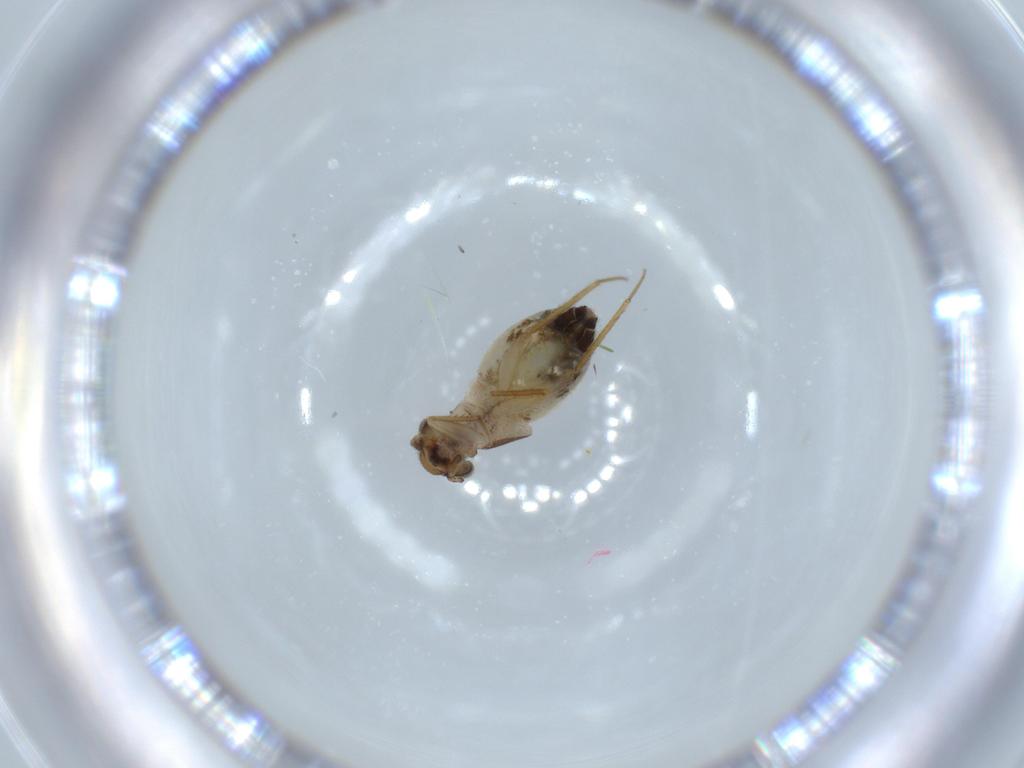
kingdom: Animalia
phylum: Arthropoda
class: Insecta
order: Psocodea
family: Lepidopsocidae
